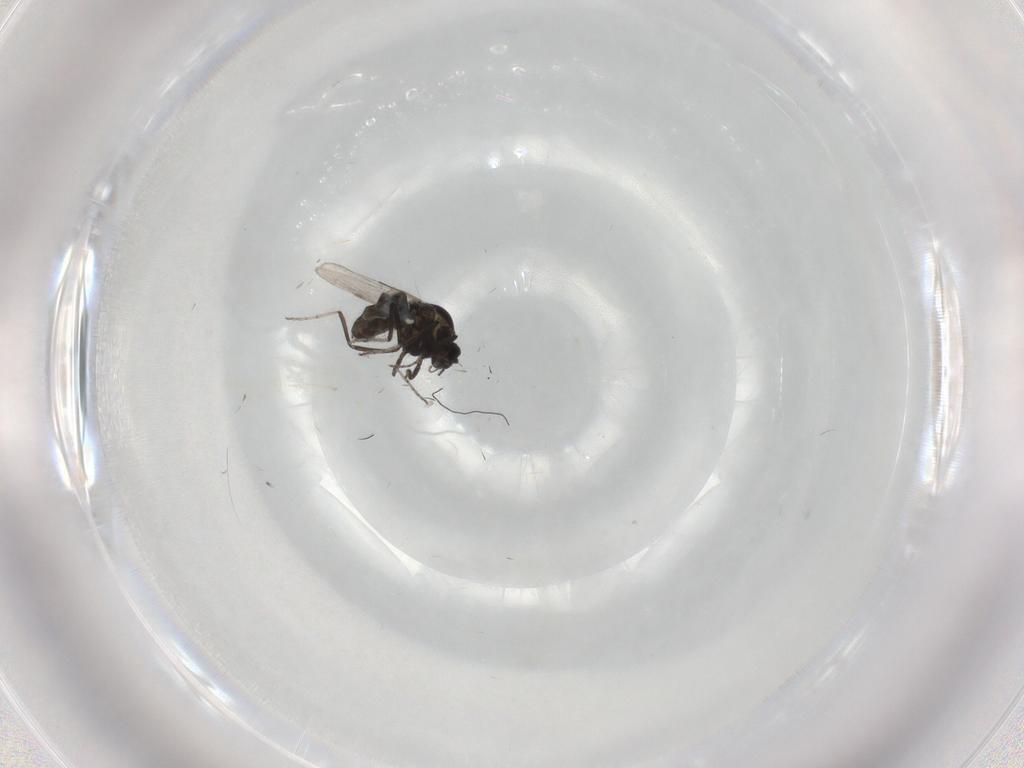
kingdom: Animalia
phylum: Arthropoda
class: Insecta
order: Diptera
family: Ceratopogonidae
